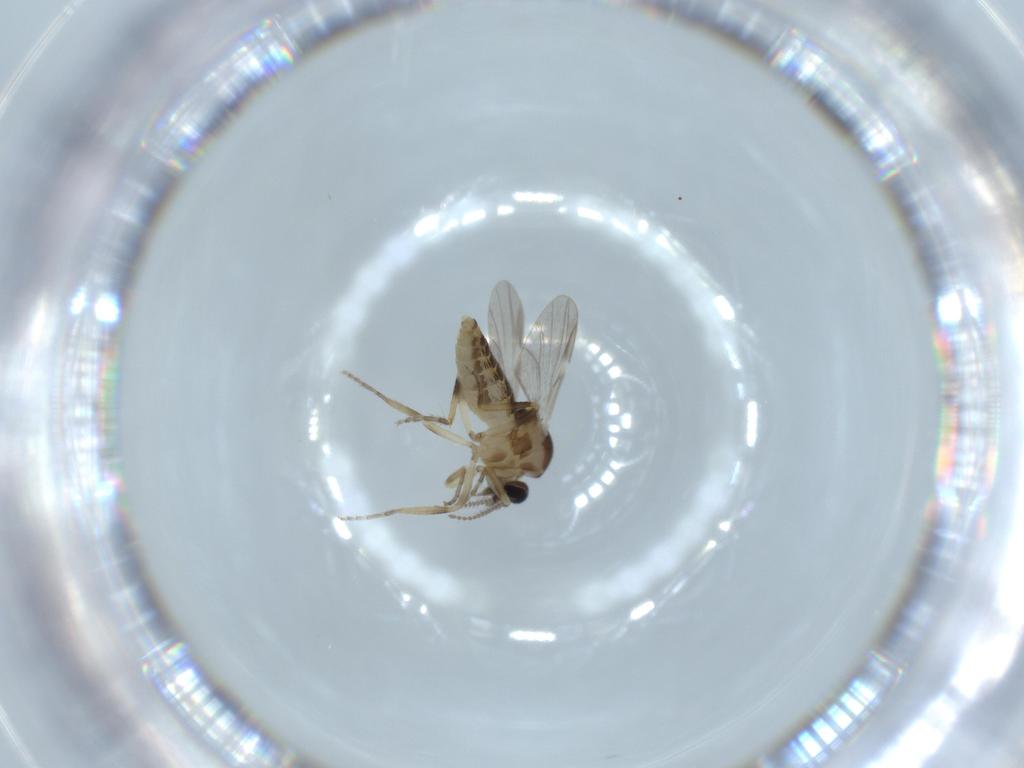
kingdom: Animalia
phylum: Arthropoda
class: Insecta
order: Diptera
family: Ceratopogonidae
